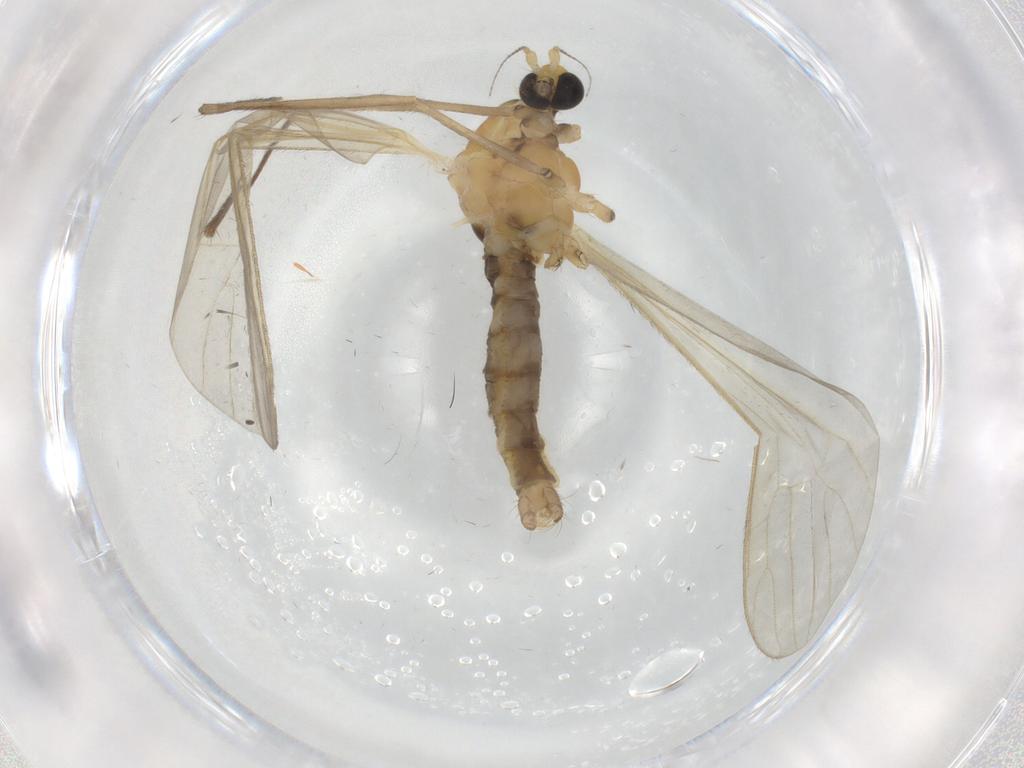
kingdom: Animalia
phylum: Arthropoda
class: Insecta
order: Diptera
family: Limoniidae
